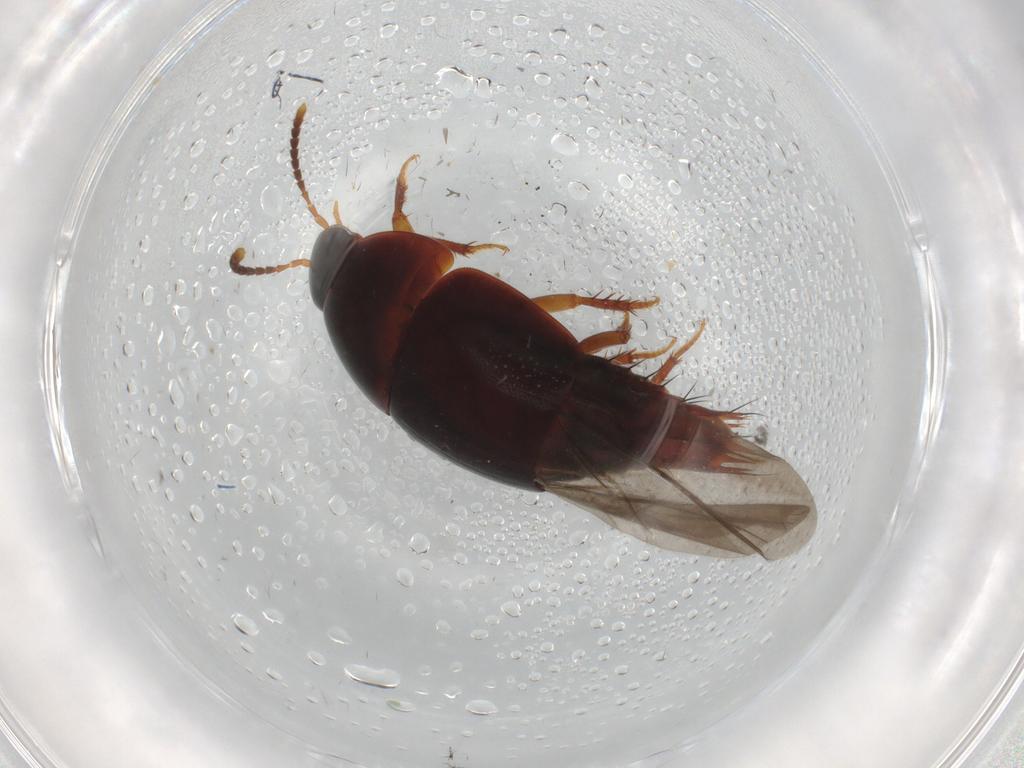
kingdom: Animalia
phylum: Arthropoda
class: Insecta
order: Coleoptera
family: Staphylinidae
